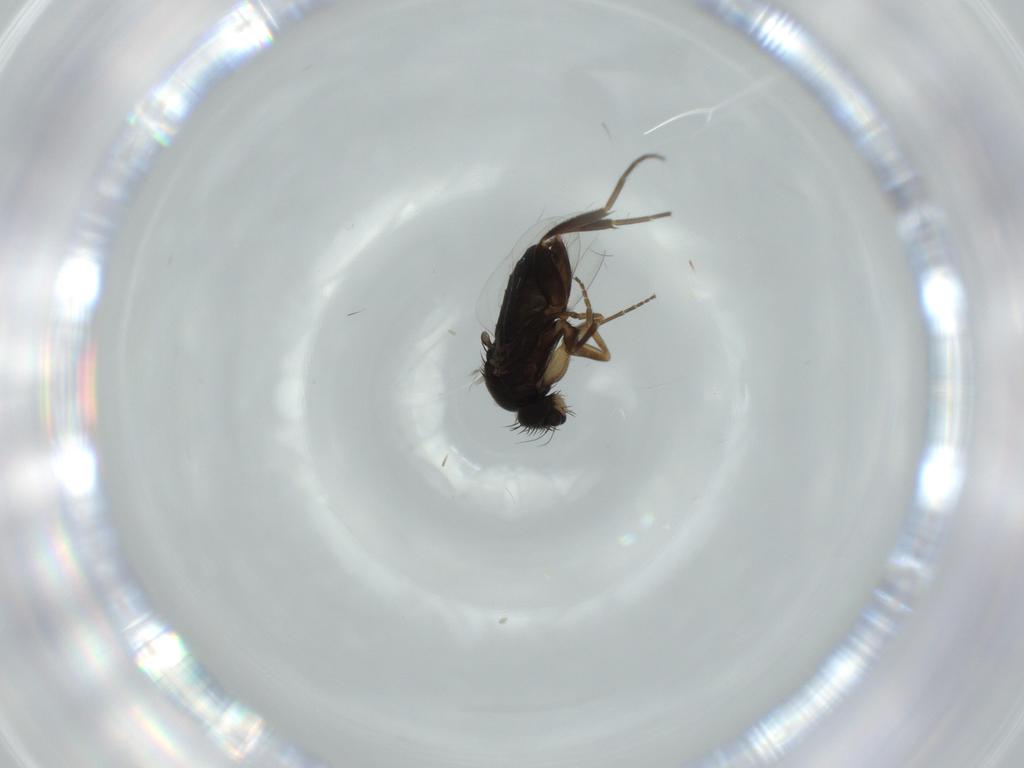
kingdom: Animalia
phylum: Arthropoda
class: Insecta
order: Diptera
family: Phoridae
